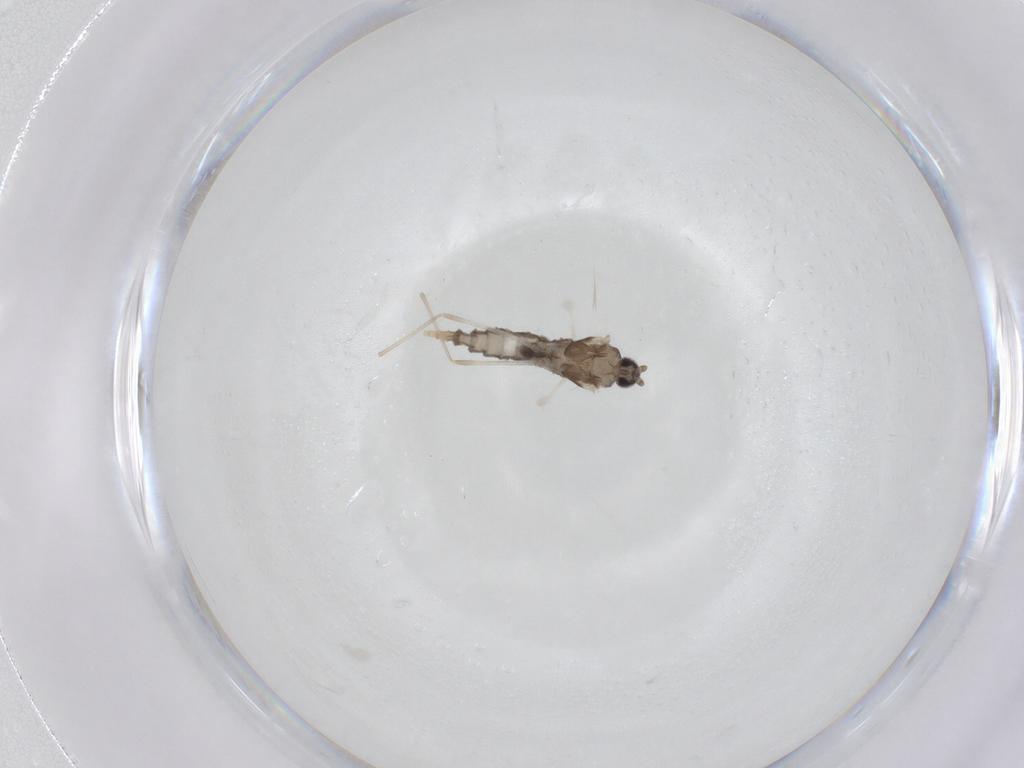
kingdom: Animalia
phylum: Arthropoda
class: Insecta
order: Diptera
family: Cecidomyiidae
